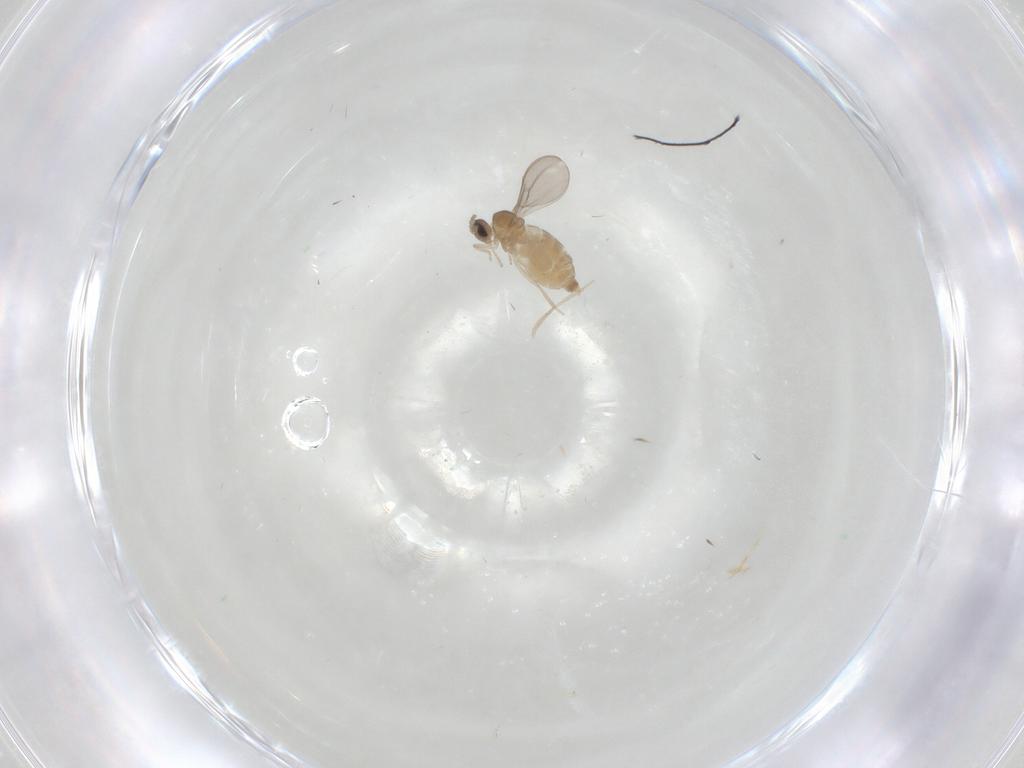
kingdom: Animalia
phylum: Arthropoda
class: Insecta
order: Diptera
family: Cecidomyiidae
